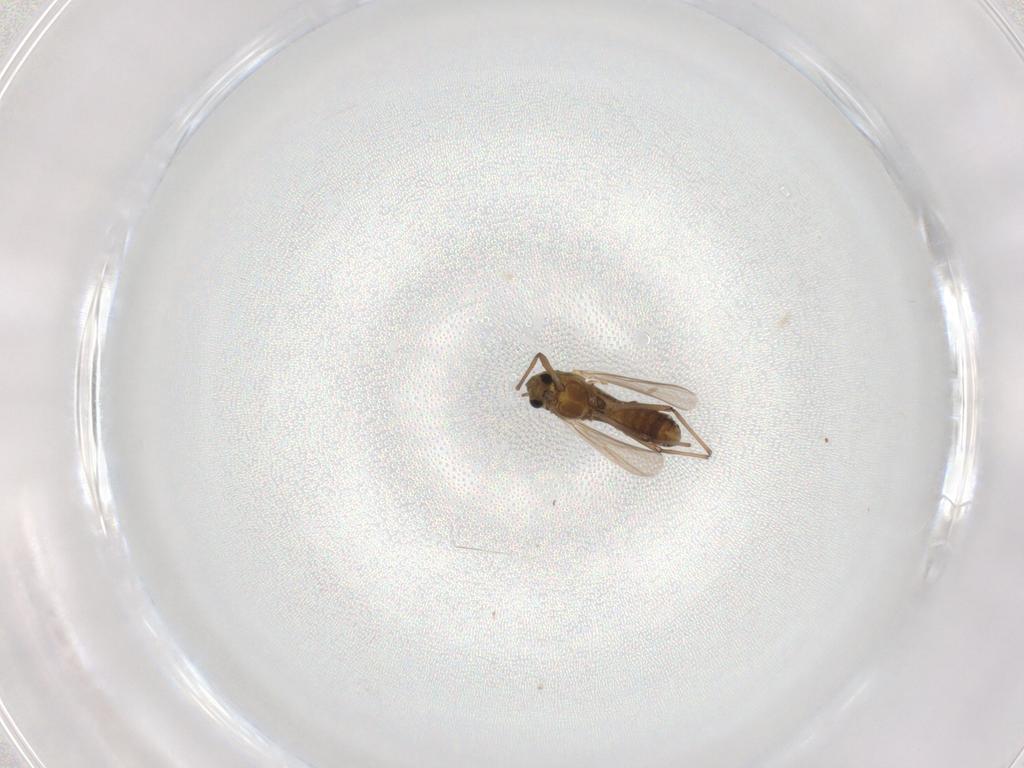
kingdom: Animalia
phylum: Arthropoda
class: Insecta
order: Diptera
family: Chironomidae
